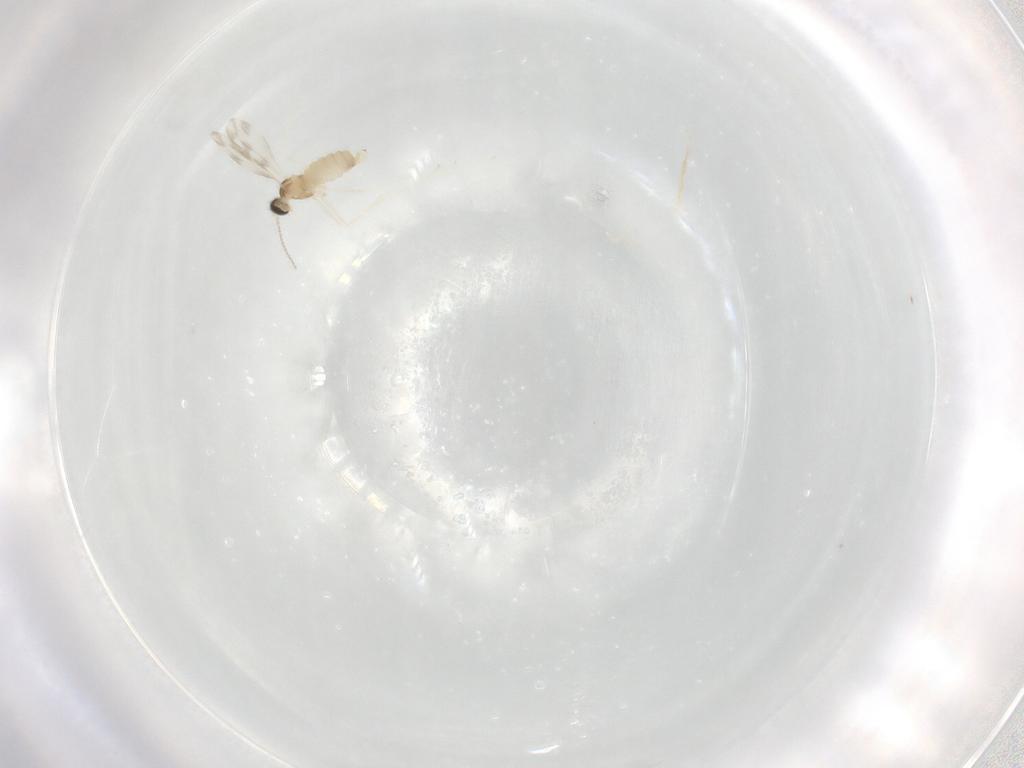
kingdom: Animalia
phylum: Arthropoda
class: Insecta
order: Diptera
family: Cecidomyiidae
